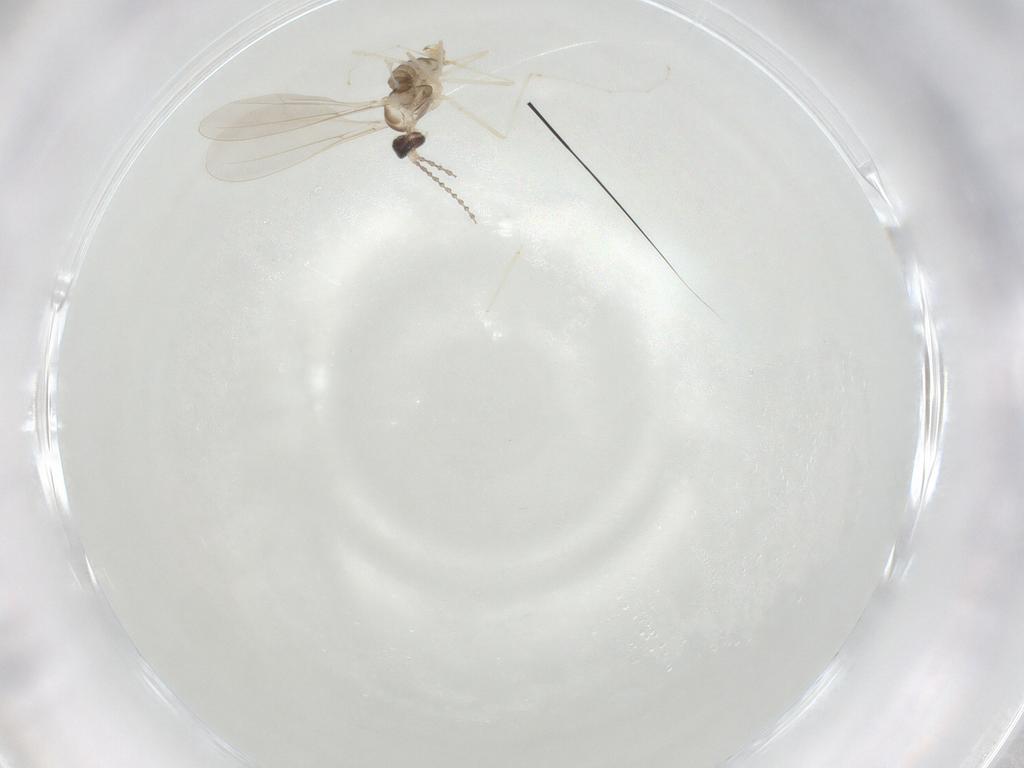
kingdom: Animalia
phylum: Arthropoda
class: Insecta
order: Diptera
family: Cecidomyiidae
